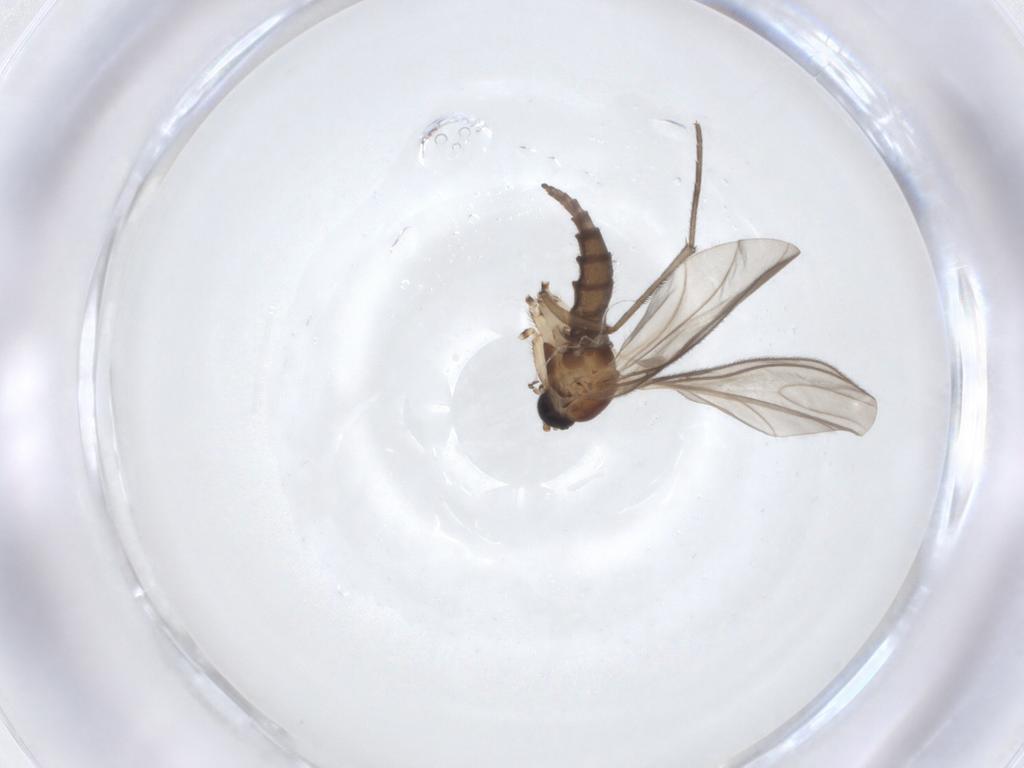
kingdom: Animalia
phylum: Arthropoda
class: Insecta
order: Diptera
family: Sciaridae
